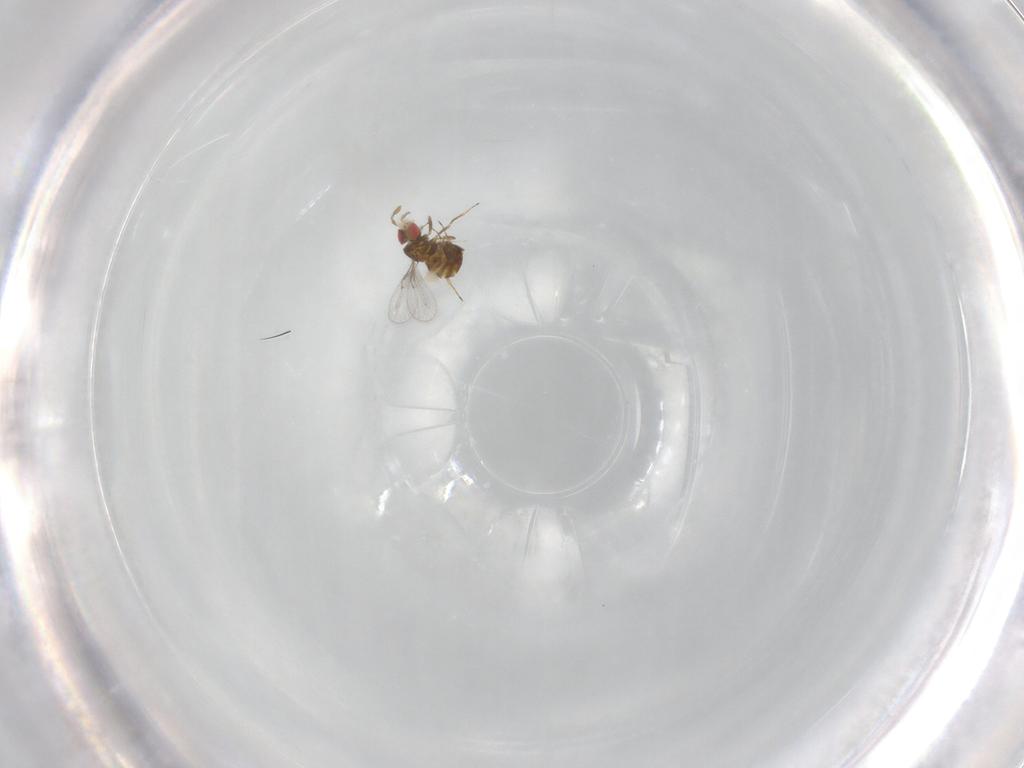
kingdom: Animalia
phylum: Arthropoda
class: Insecta
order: Hymenoptera
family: Trichogrammatidae
